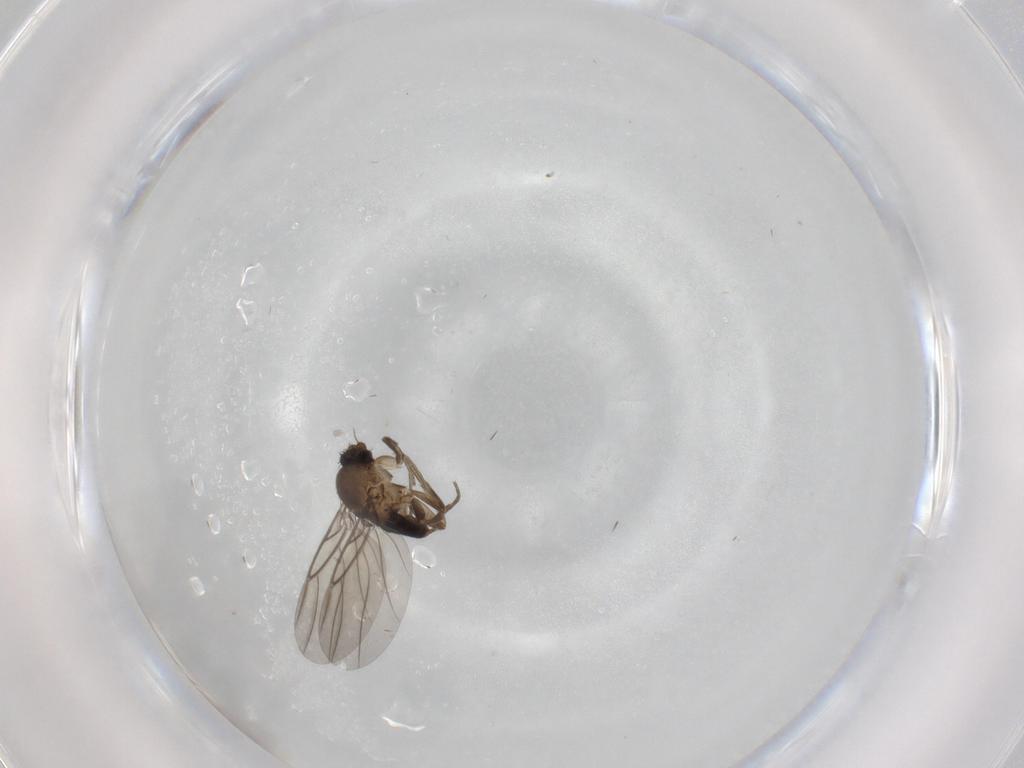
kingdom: Animalia
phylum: Arthropoda
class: Insecta
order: Diptera
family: Phoridae
